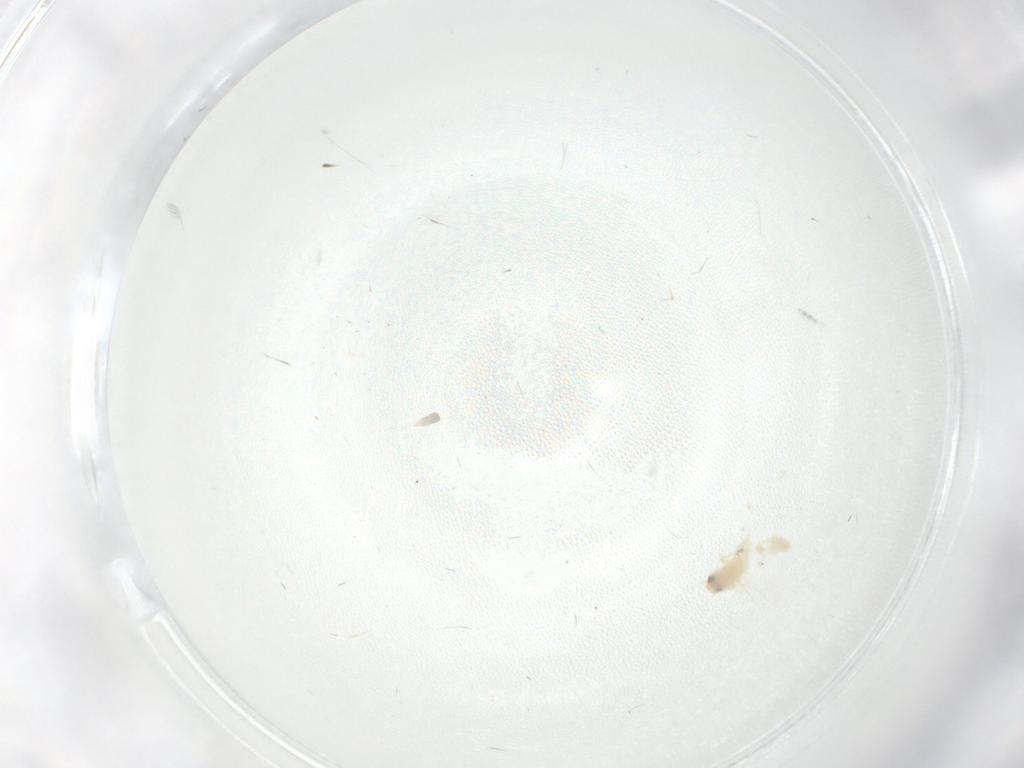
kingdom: Animalia
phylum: Arthropoda
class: Insecta
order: Hemiptera
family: Aleyrodidae
